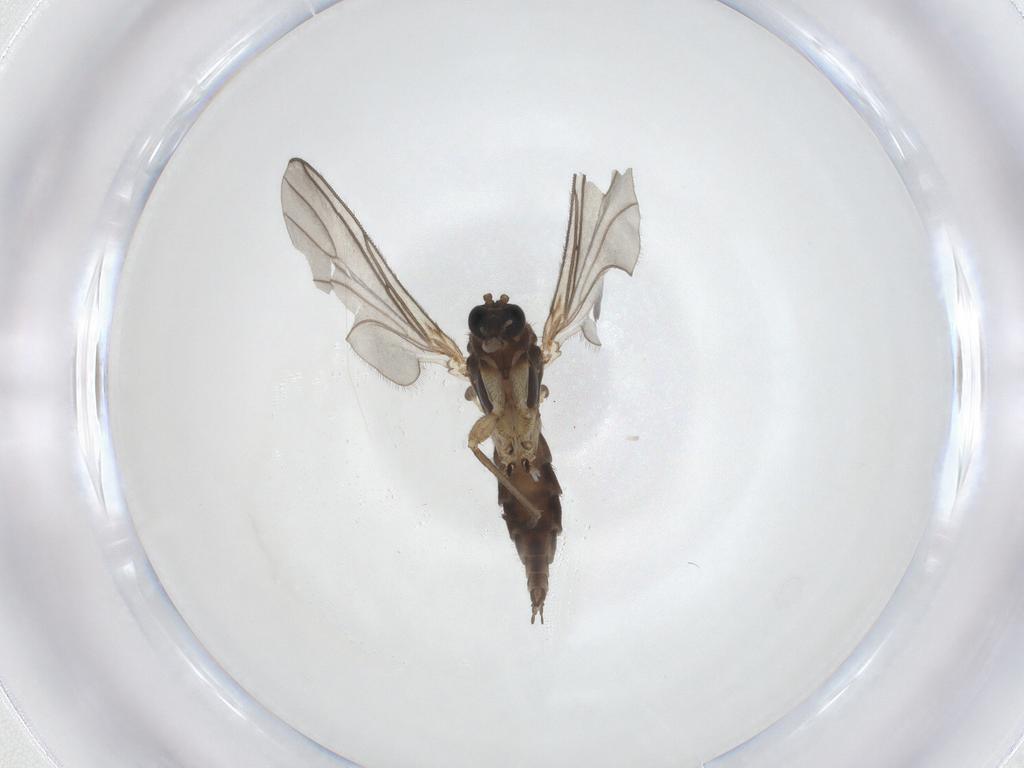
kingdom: Animalia
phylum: Arthropoda
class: Insecta
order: Diptera
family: Sciaridae
